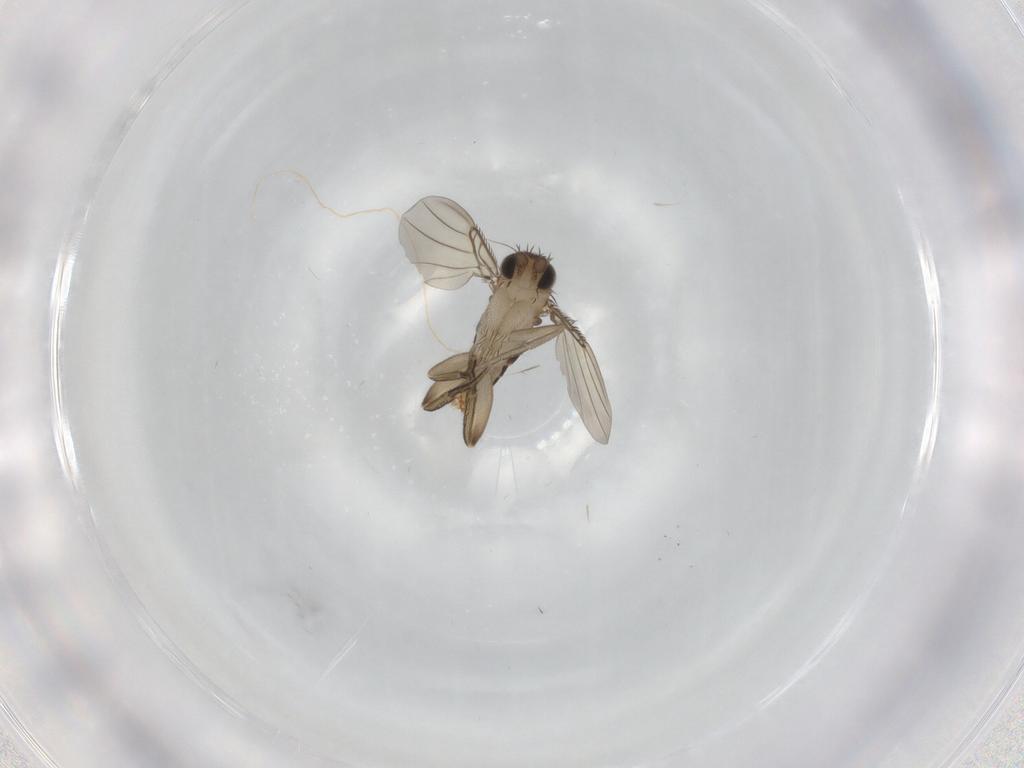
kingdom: Animalia
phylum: Arthropoda
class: Insecta
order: Diptera
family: Phoridae
